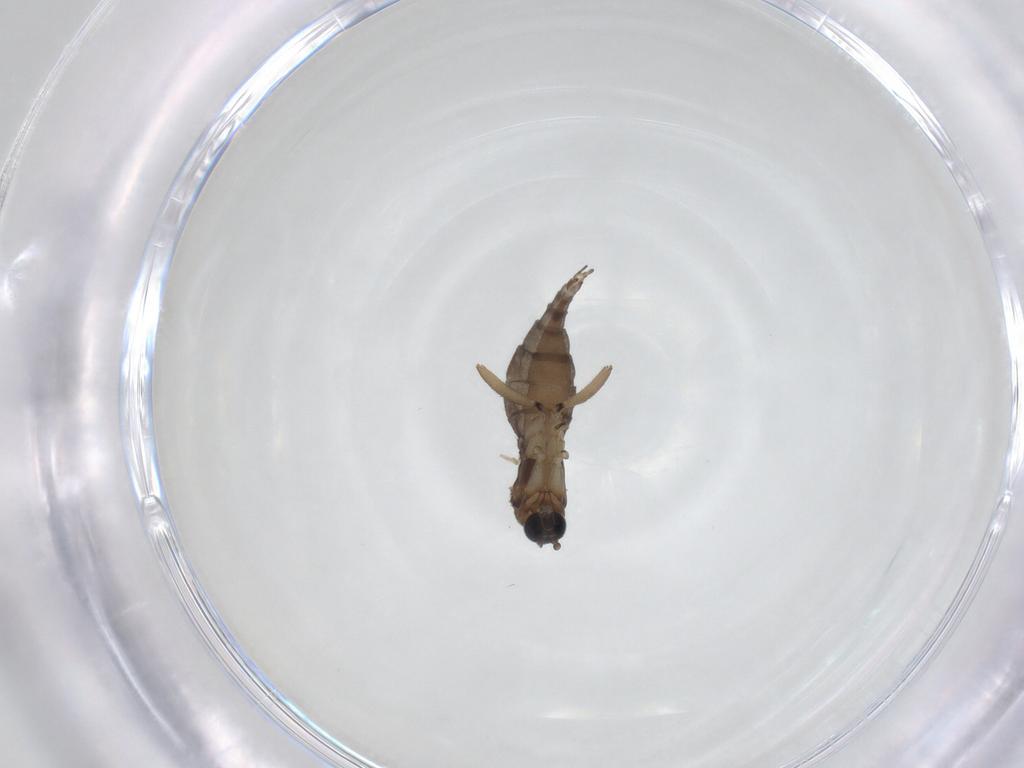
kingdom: Animalia
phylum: Arthropoda
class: Insecta
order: Diptera
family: Sciaridae
